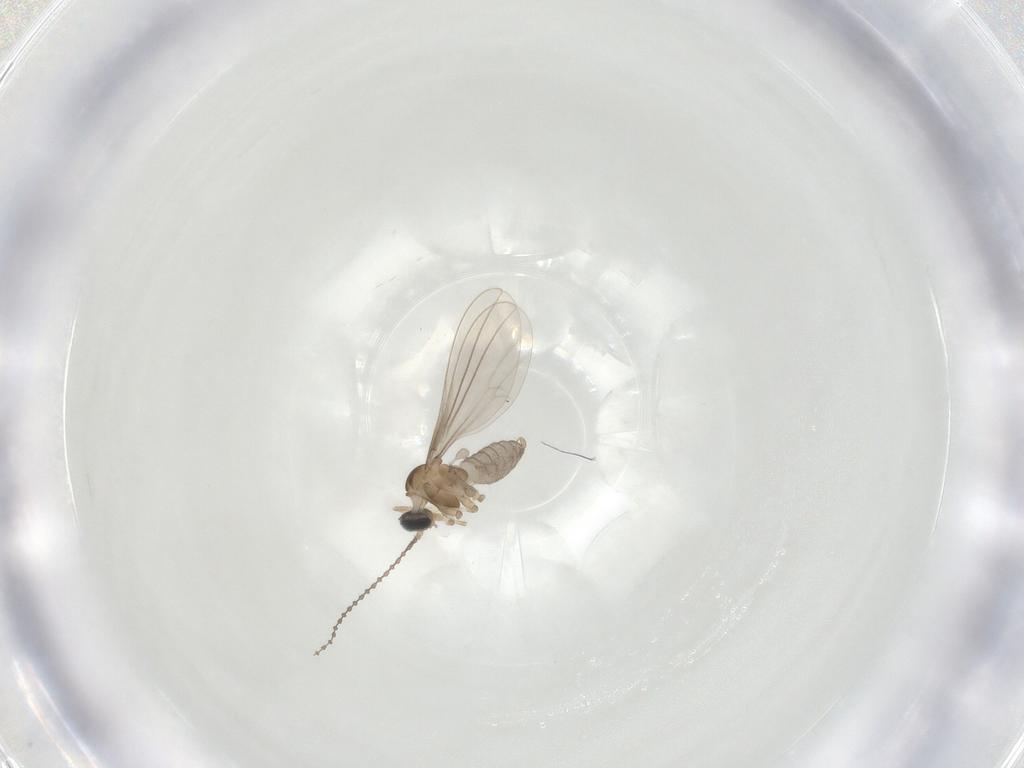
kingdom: Animalia
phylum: Arthropoda
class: Insecta
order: Diptera
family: Cecidomyiidae
